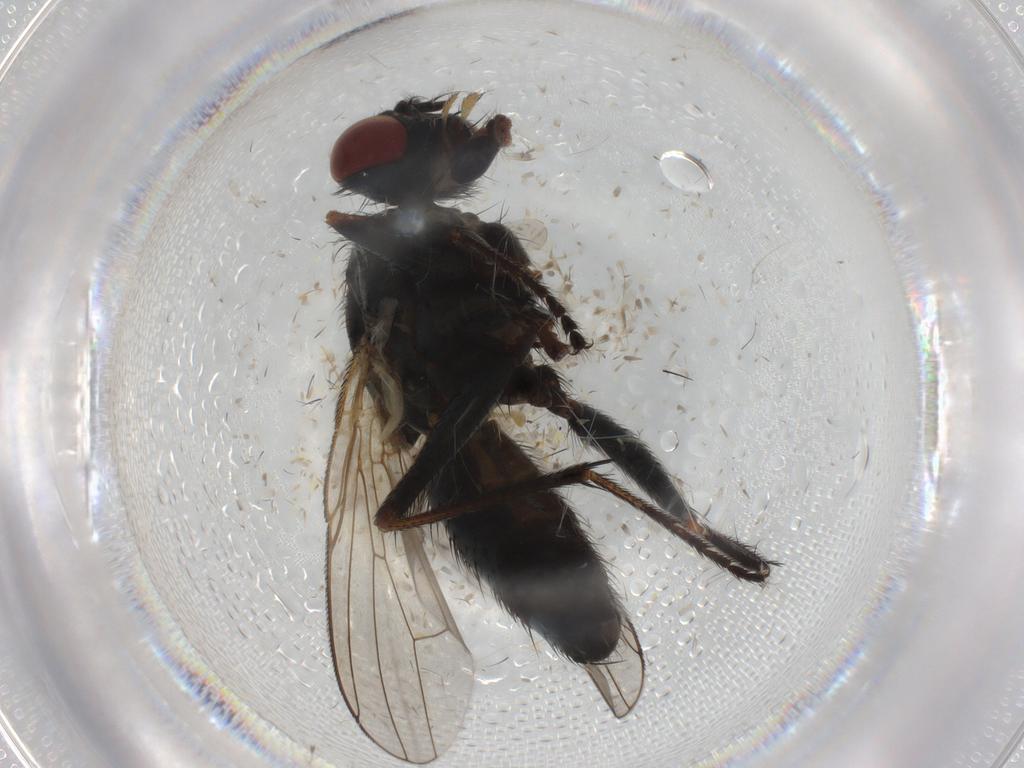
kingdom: Animalia
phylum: Arthropoda
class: Insecta
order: Diptera
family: Muscidae
